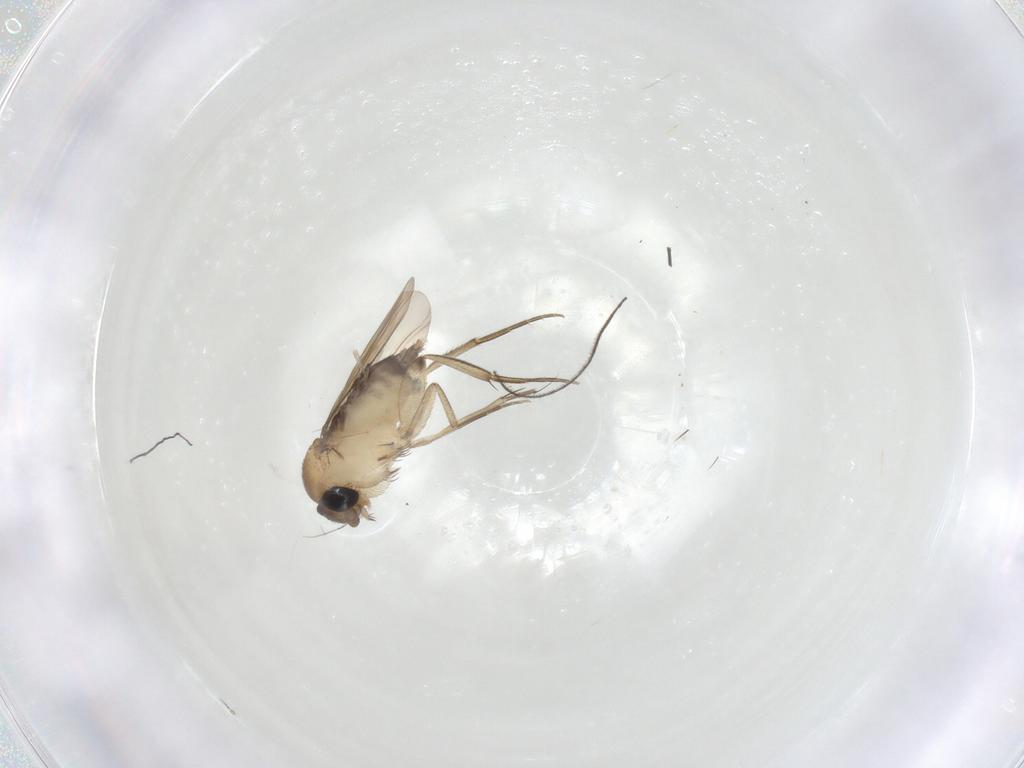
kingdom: Animalia
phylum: Arthropoda
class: Insecta
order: Diptera
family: Phoridae
